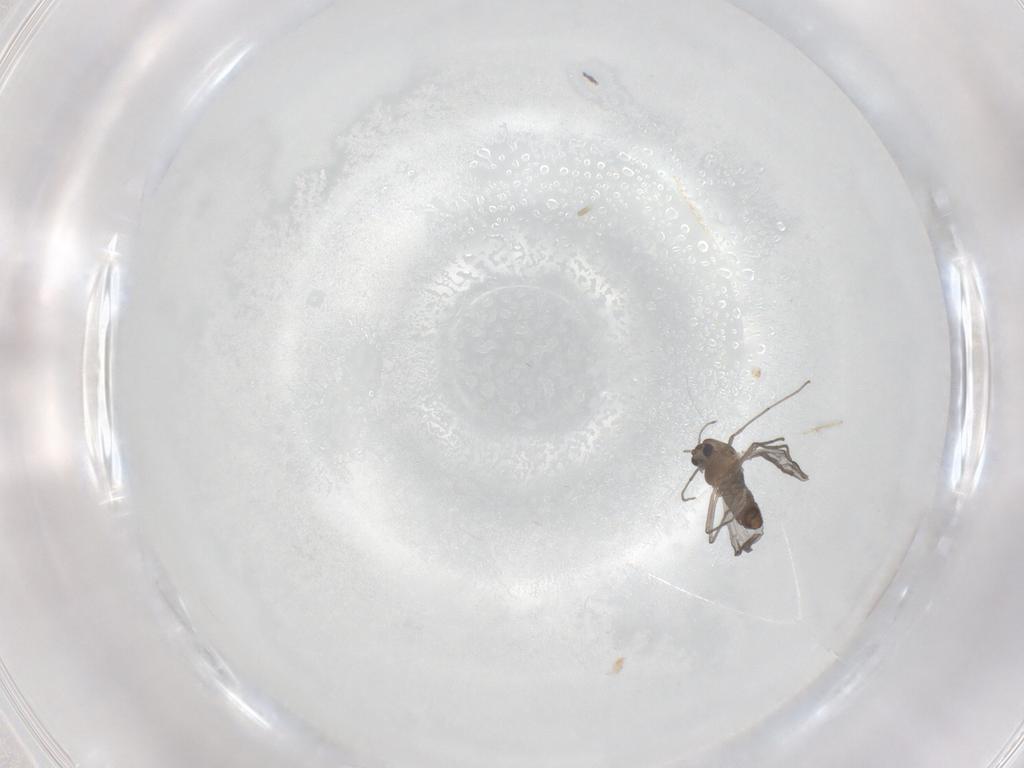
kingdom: Animalia
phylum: Arthropoda
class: Insecta
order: Diptera
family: Chironomidae
